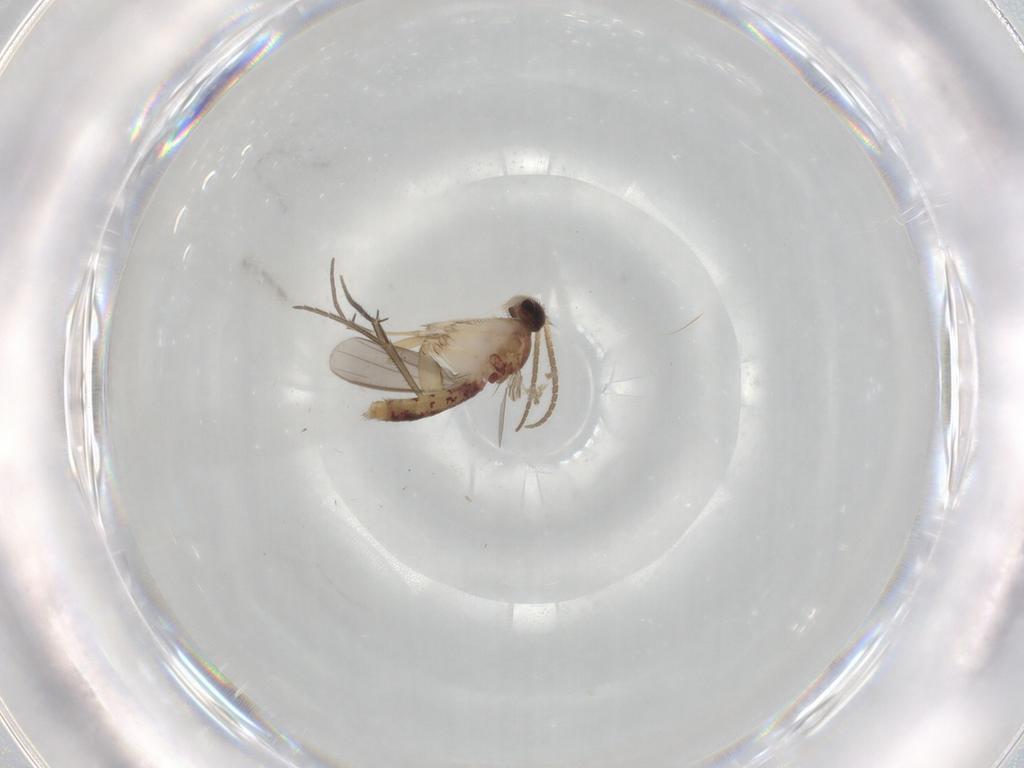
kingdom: Animalia
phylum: Arthropoda
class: Insecta
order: Diptera
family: Mycetophilidae
